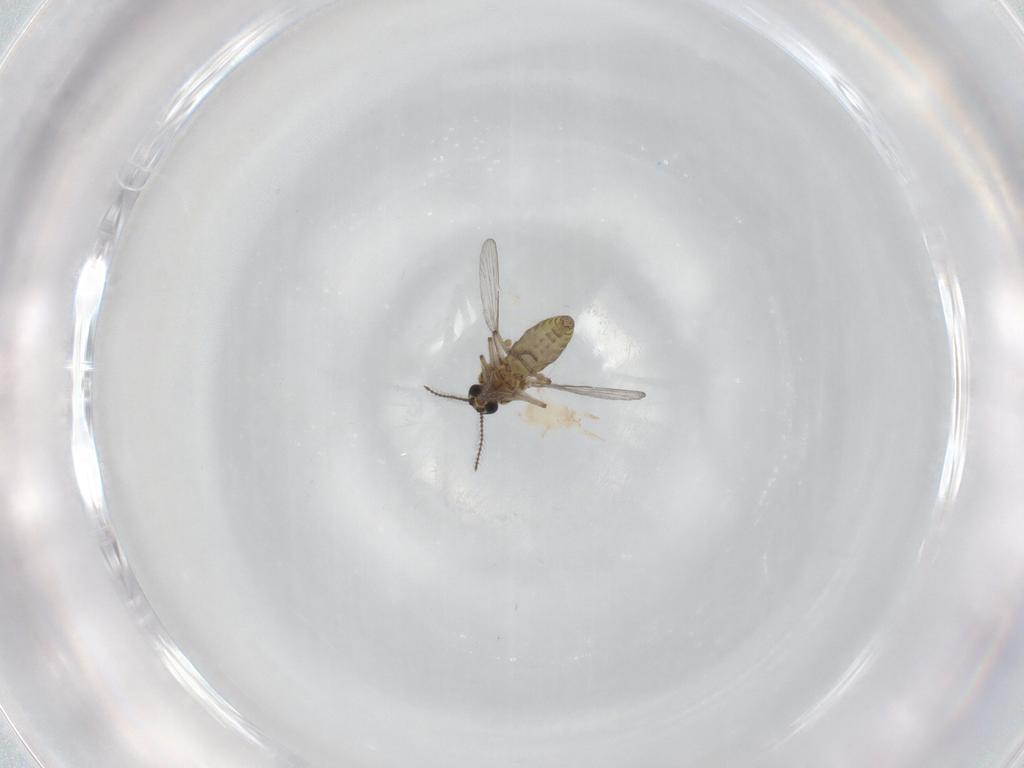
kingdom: Animalia
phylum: Arthropoda
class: Insecta
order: Diptera
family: Ceratopogonidae
